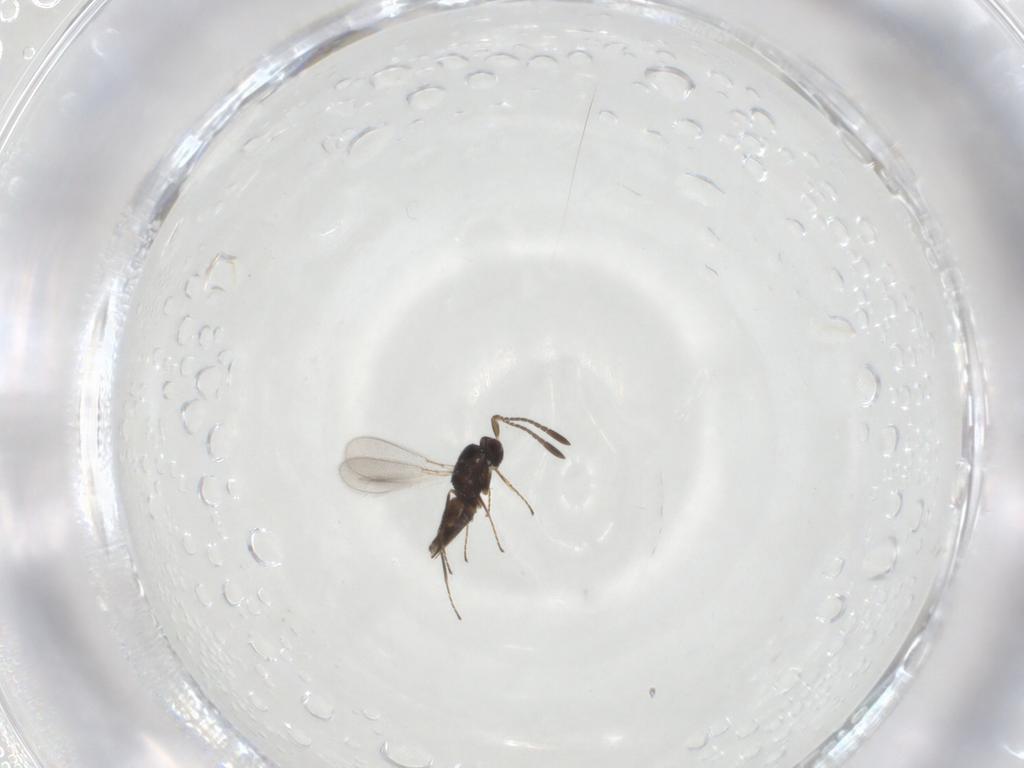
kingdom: Animalia
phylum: Arthropoda
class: Insecta
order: Hymenoptera
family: Mymaridae
